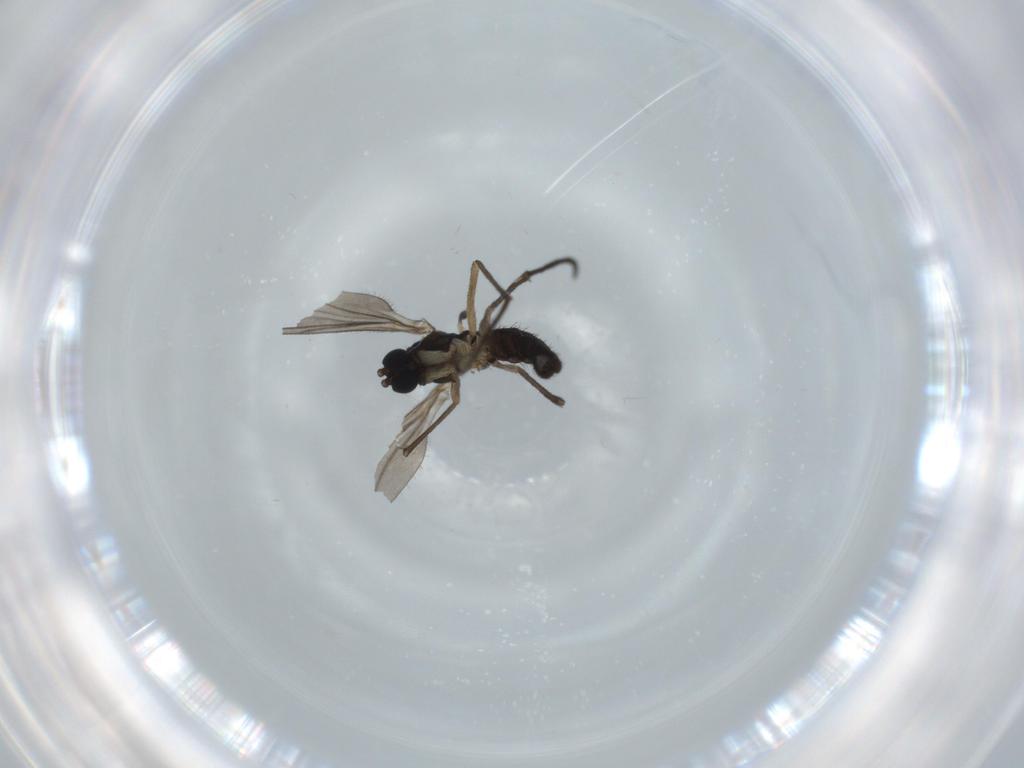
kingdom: Animalia
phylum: Arthropoda
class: Insecta
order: Diptera
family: Sciaridae
